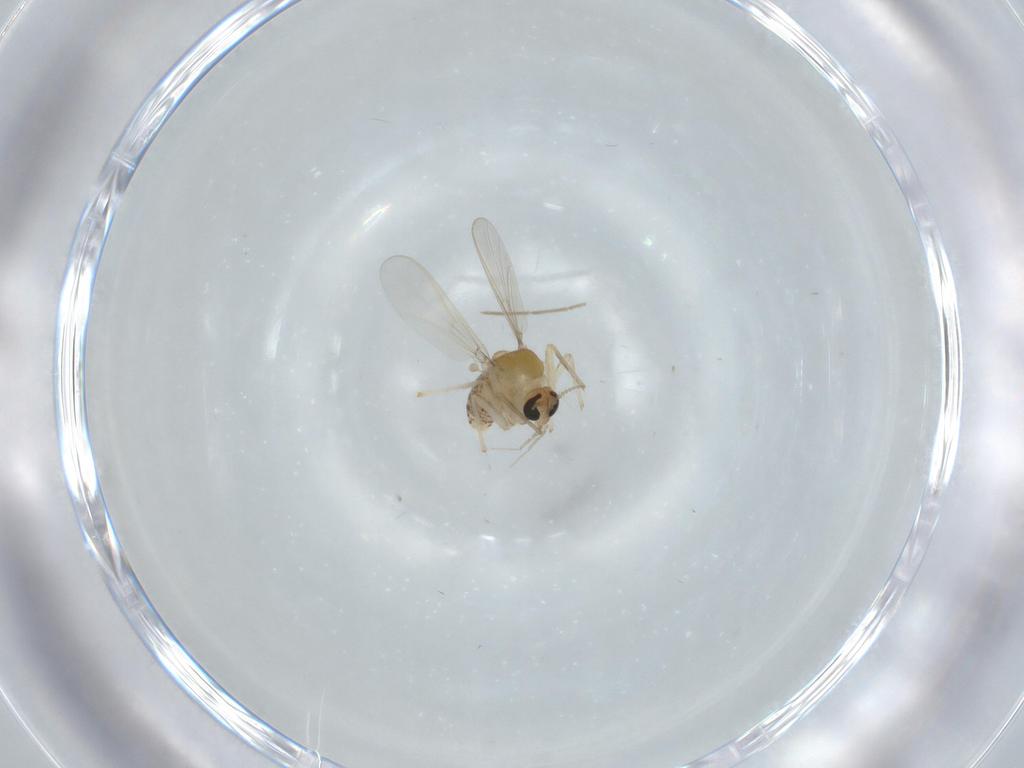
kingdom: Animalia
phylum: Arthropoda
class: Insecta
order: Diptera
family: Chironomidae
